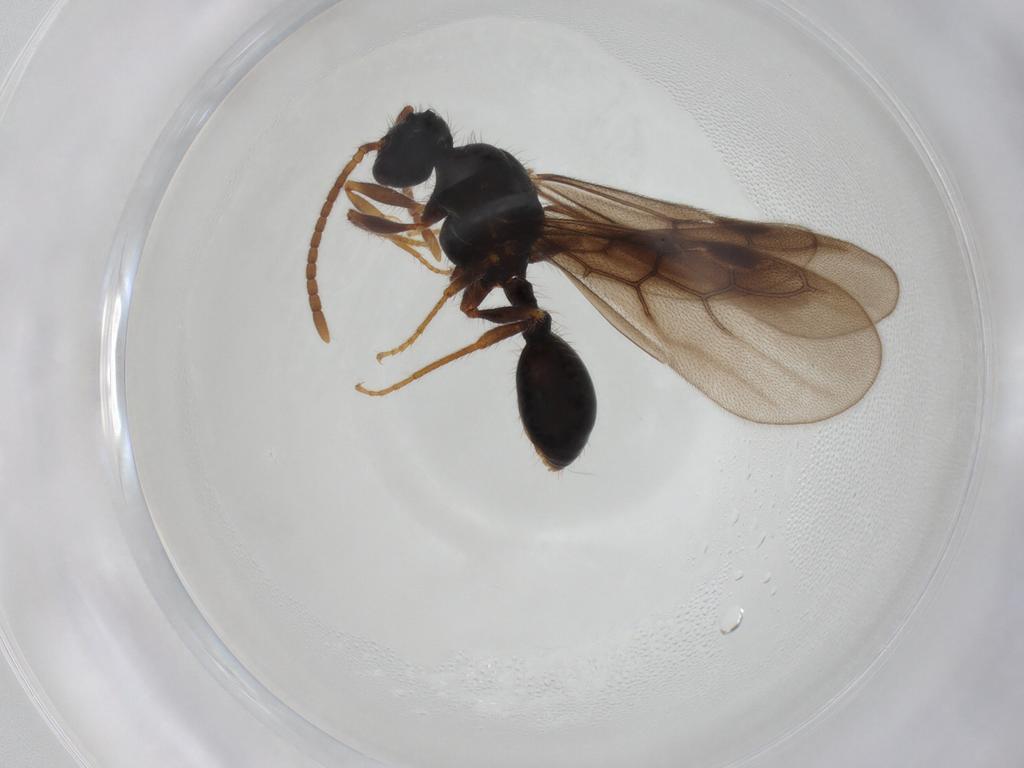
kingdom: Animalia
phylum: Arthropoda
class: Insecta
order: Hymenoptera
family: Formicidae
